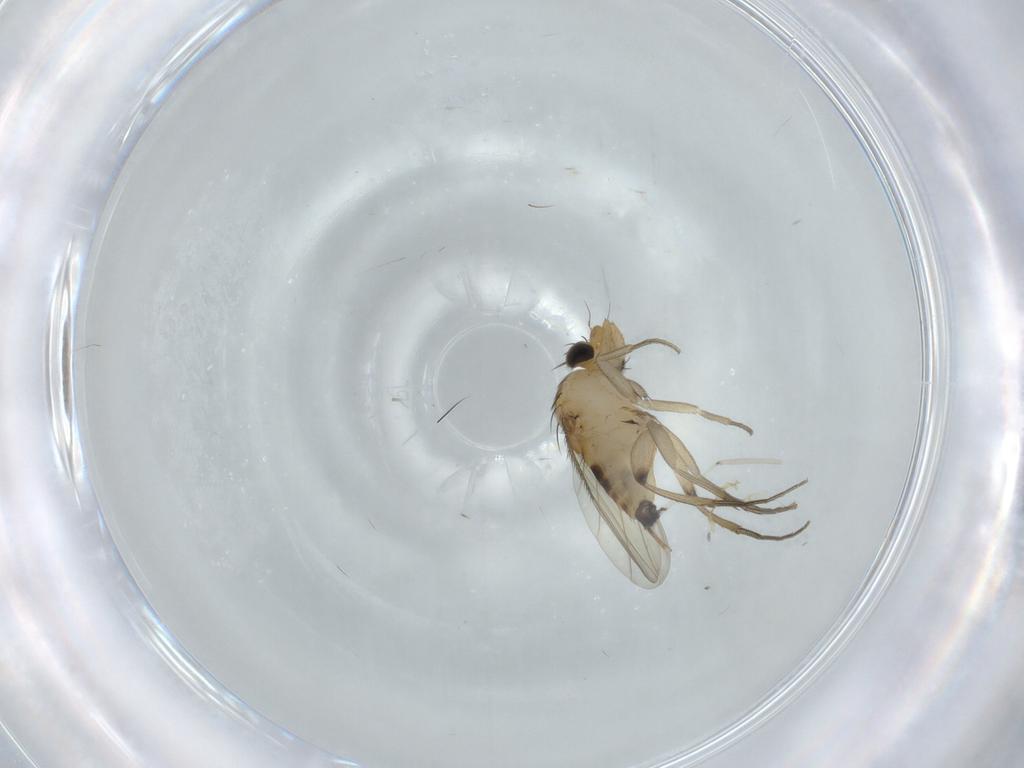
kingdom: Animalia
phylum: Arthropoda
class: Insecta
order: Diptera
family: Phoridae
